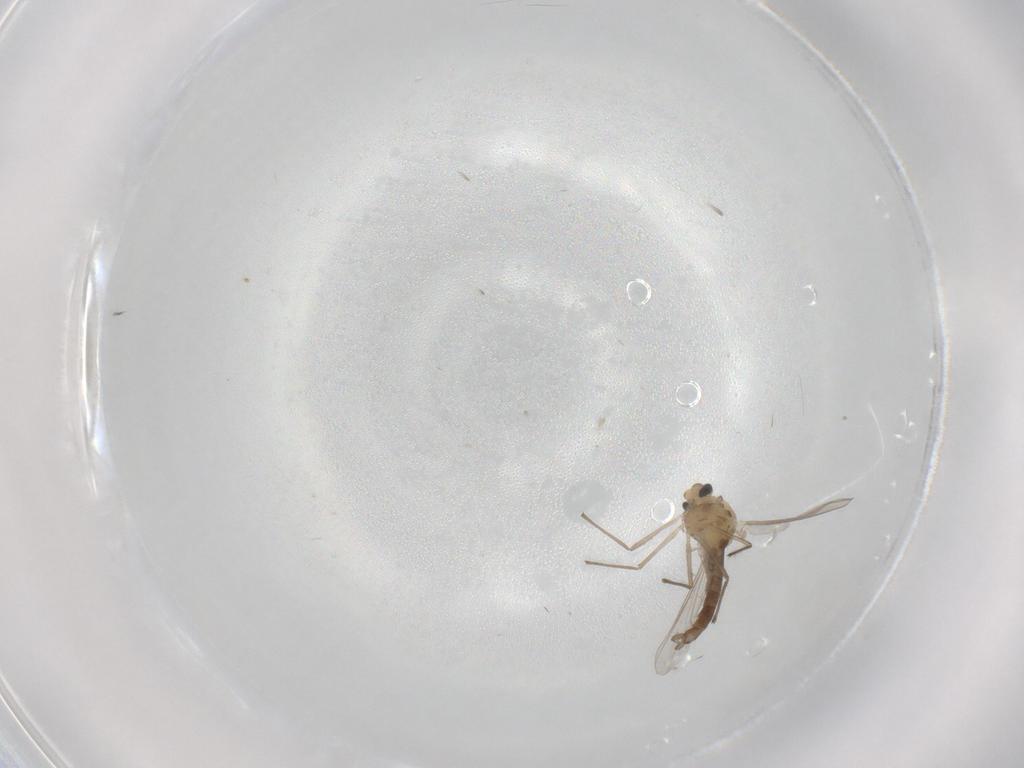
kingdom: Animalia
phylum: Arthropoda
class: Insecta
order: Diptera
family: Chironomidae
